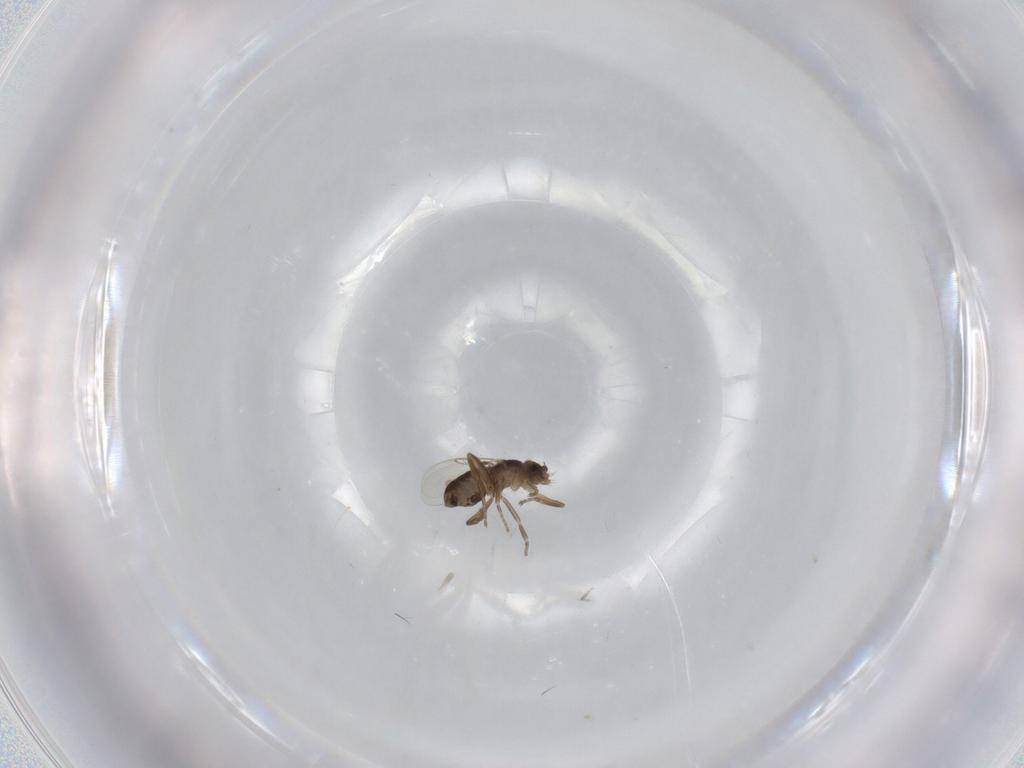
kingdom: Animalia
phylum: Arthropoda
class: Insecta
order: Diptera
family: Phoridae
